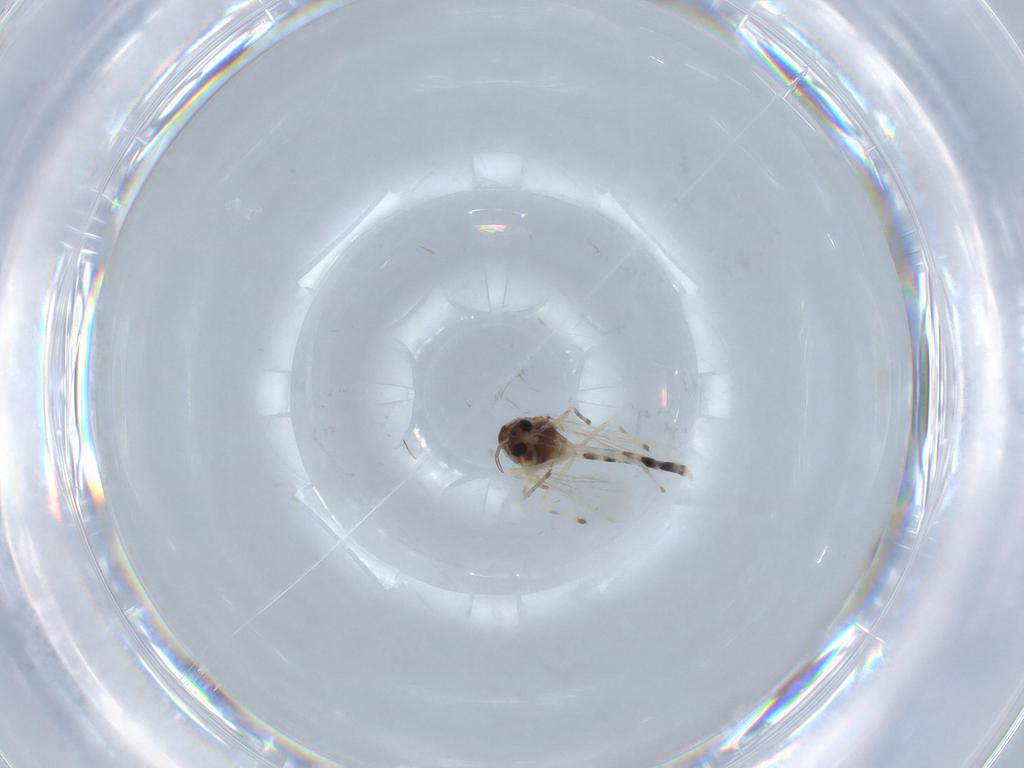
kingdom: Animalia
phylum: Arthropoda
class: Insecta
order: Diptera
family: Chironomidae
